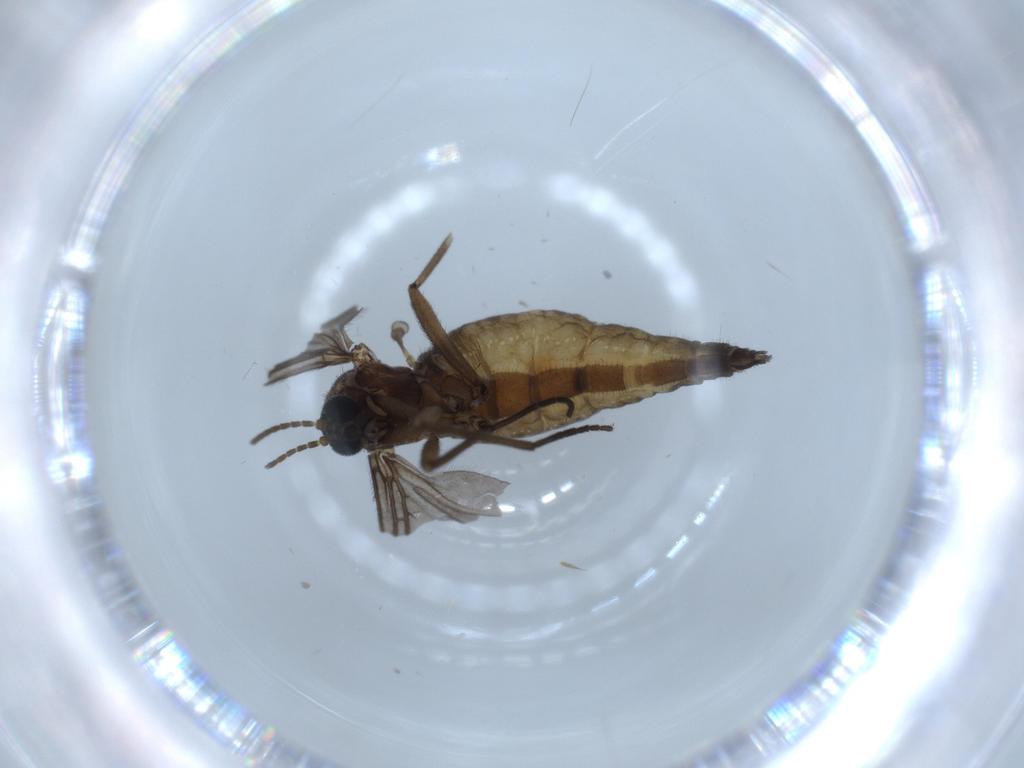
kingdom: Animalia
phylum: Arthropoda
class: Insecta
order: Diptera
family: Sciaridae
